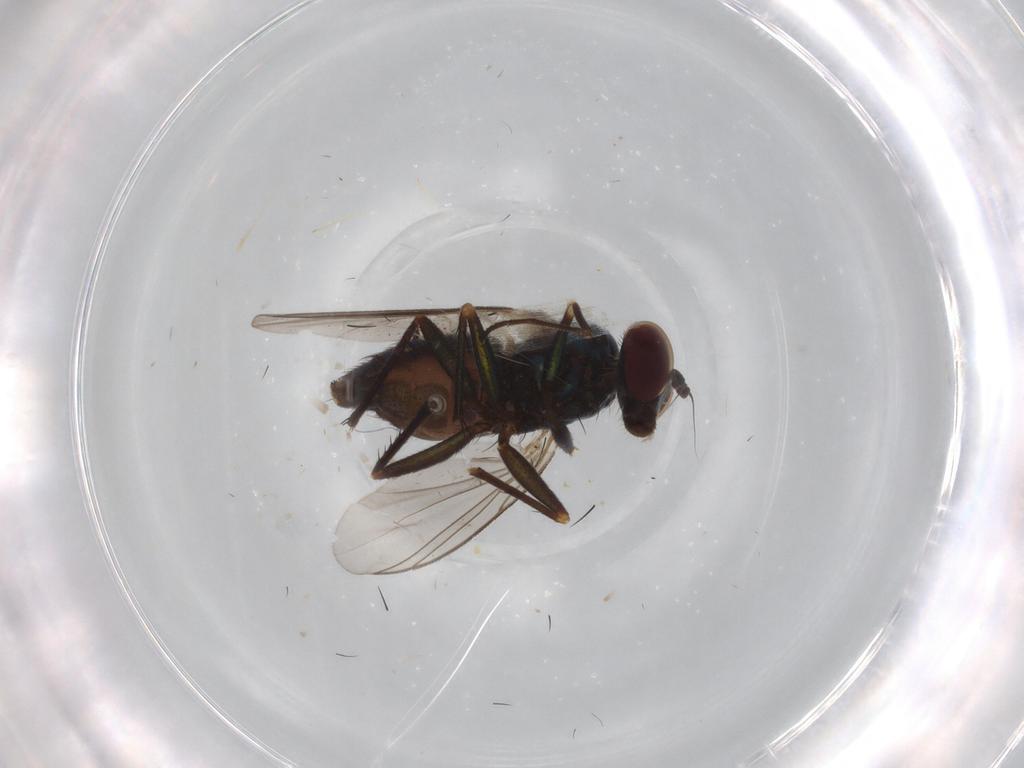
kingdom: Animalia
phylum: Arthropoda
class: Insecta
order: Diptera
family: Dolichopodidae
